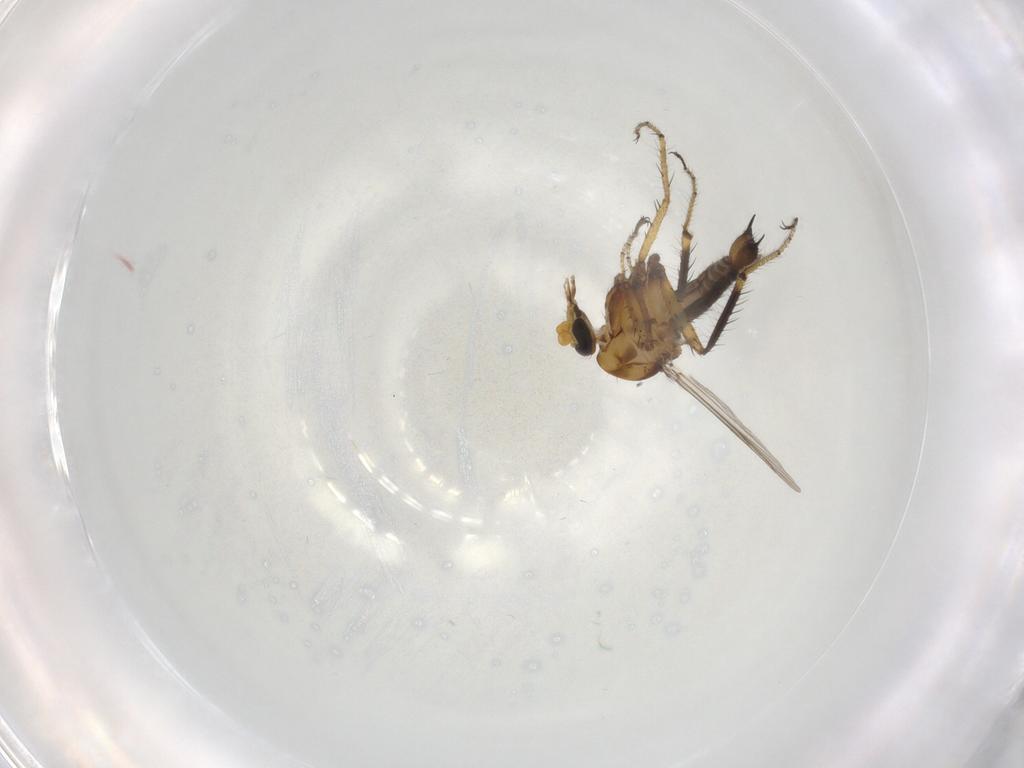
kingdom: Animalia
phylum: Arthropoda
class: Insecta
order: Diptera
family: Ceratopogonidae
